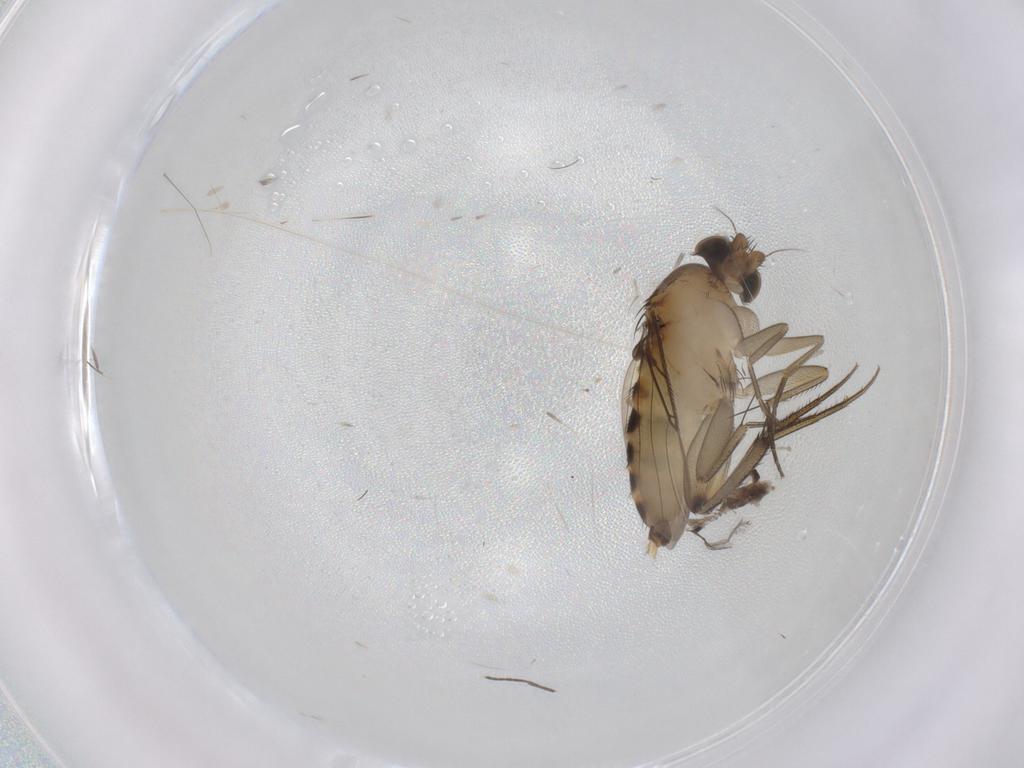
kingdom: Animalia
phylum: Arthropoda
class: Insecta
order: Diptera
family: Phoridae
